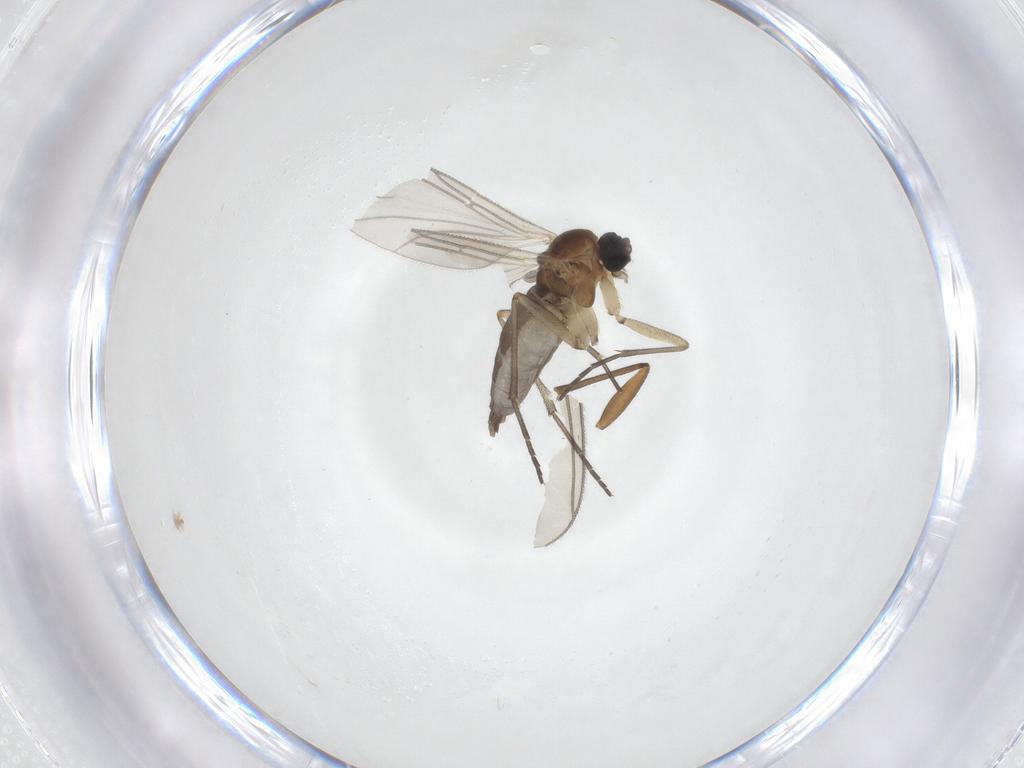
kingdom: Animalia
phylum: Arthropoda
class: Insecta
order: Diptera
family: Sciaridae
